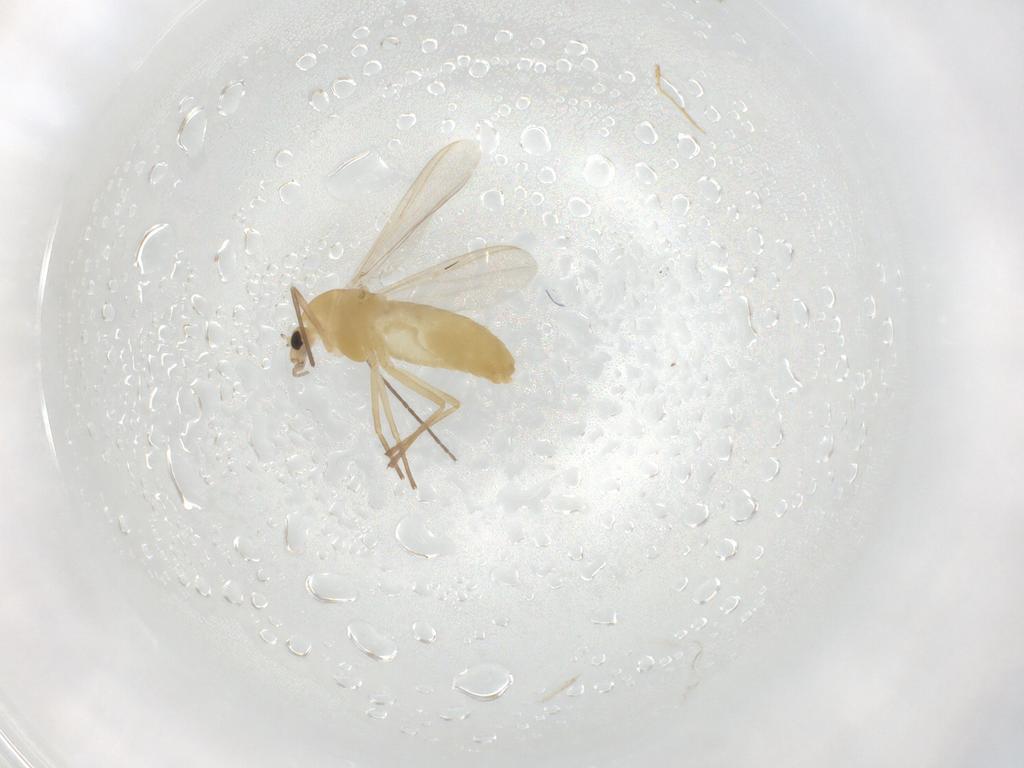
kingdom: Animalia
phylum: Arthropoda
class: Insecta
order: Diptera
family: Chironomidae
